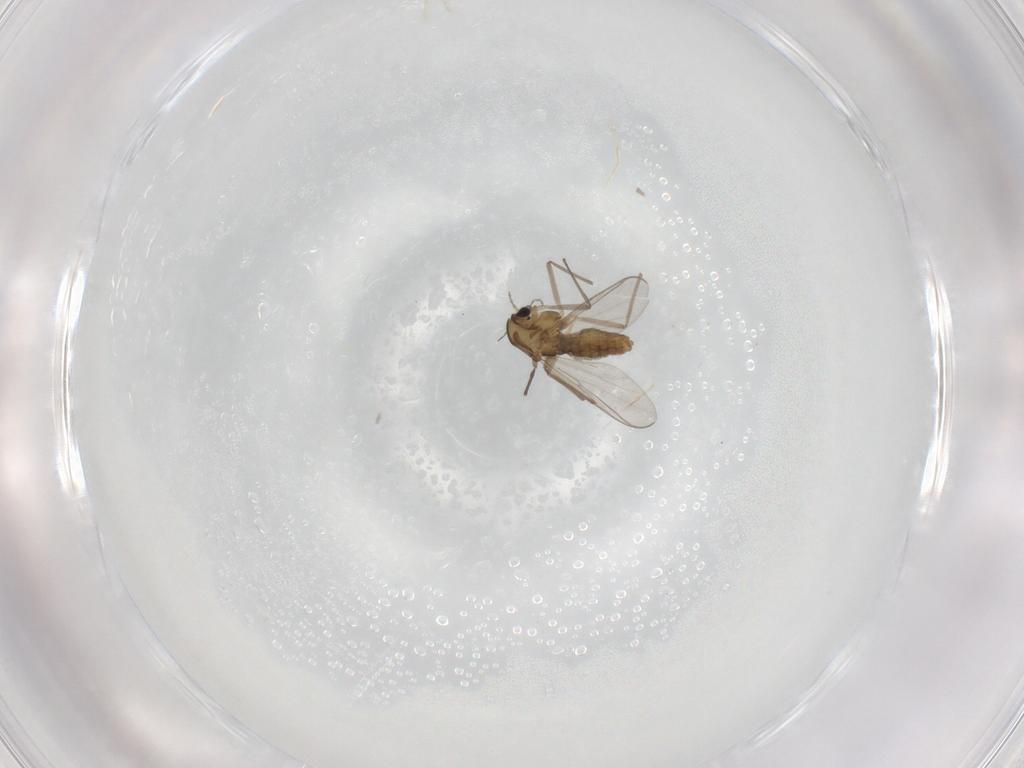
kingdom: Animalia
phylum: Arthropoda
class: Insecta
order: Diptera
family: Chironomidae
